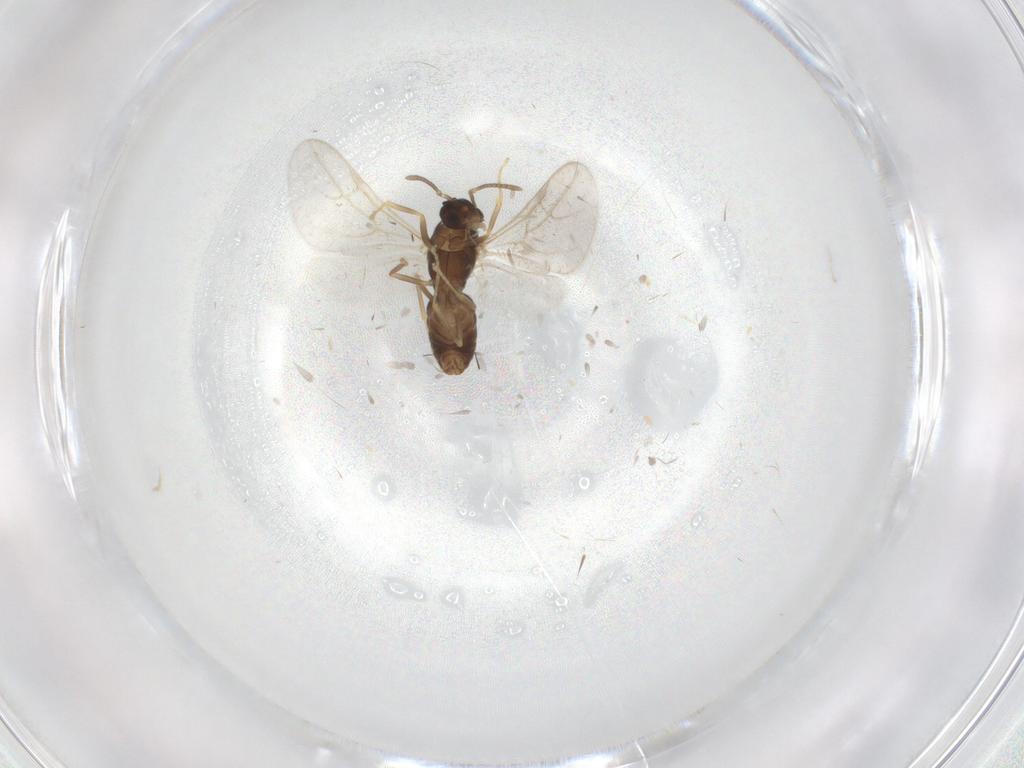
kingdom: Animalia
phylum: Arthropoda
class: Insecta
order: Hymenoptera
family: Formicidae
